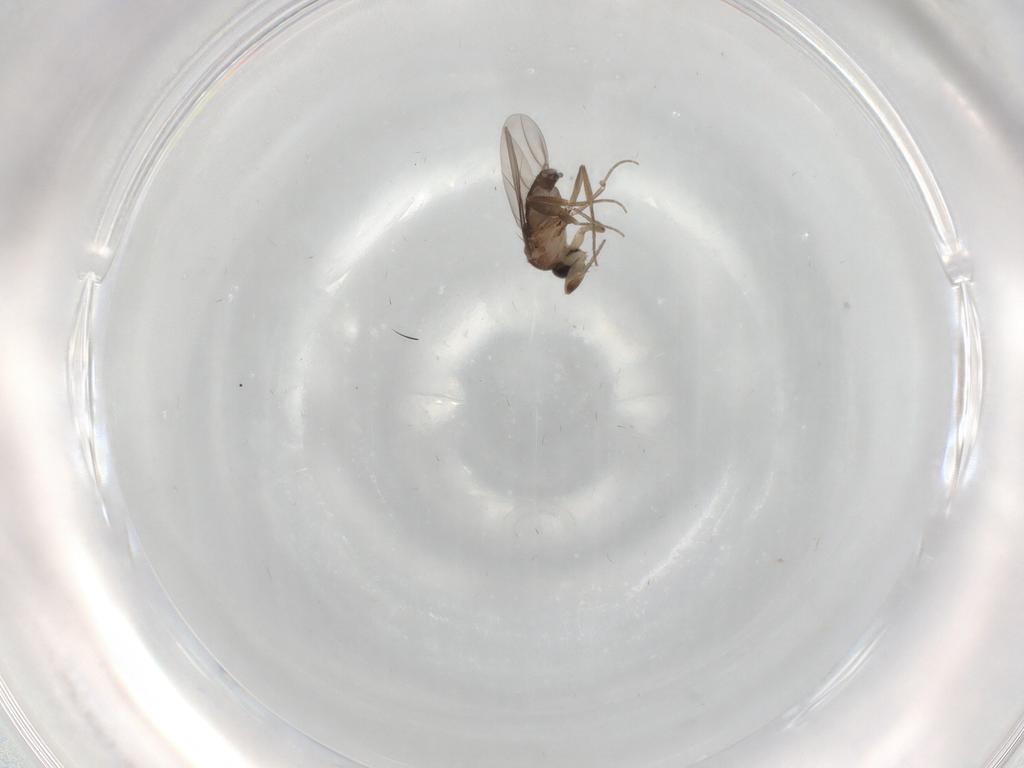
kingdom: Animalia
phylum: Arthropoda
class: Insecta
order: Diptera
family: Phoridae
